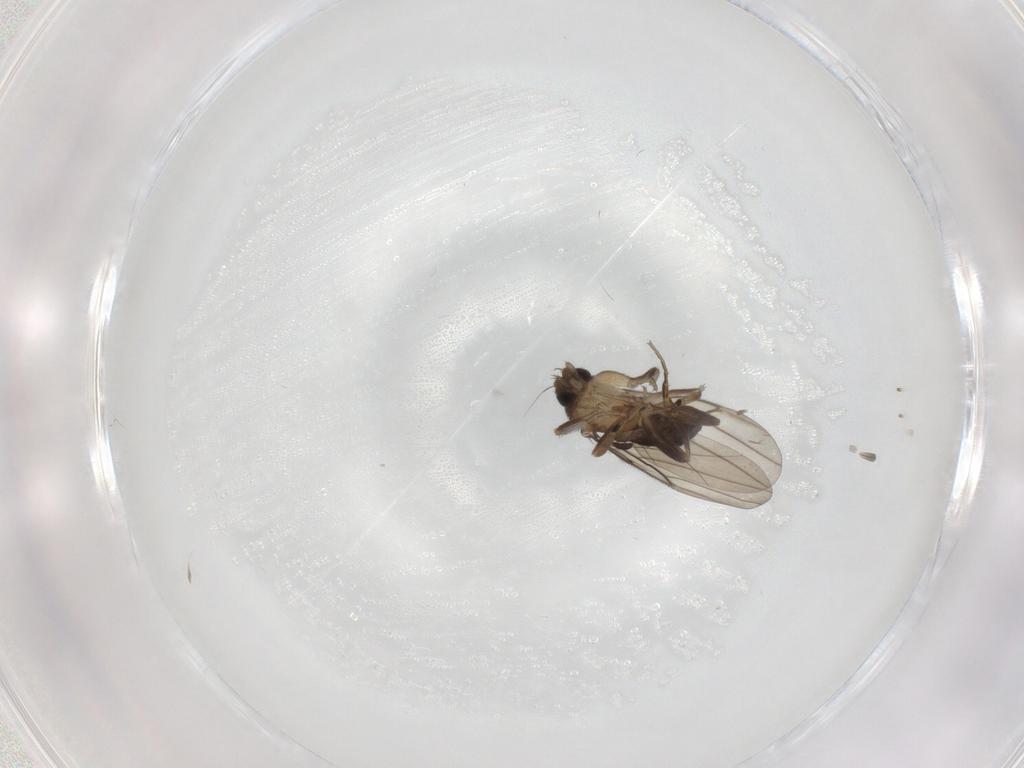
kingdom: Animalia
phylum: Arthropoda
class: Insecta
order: Diptera
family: Phoridae
